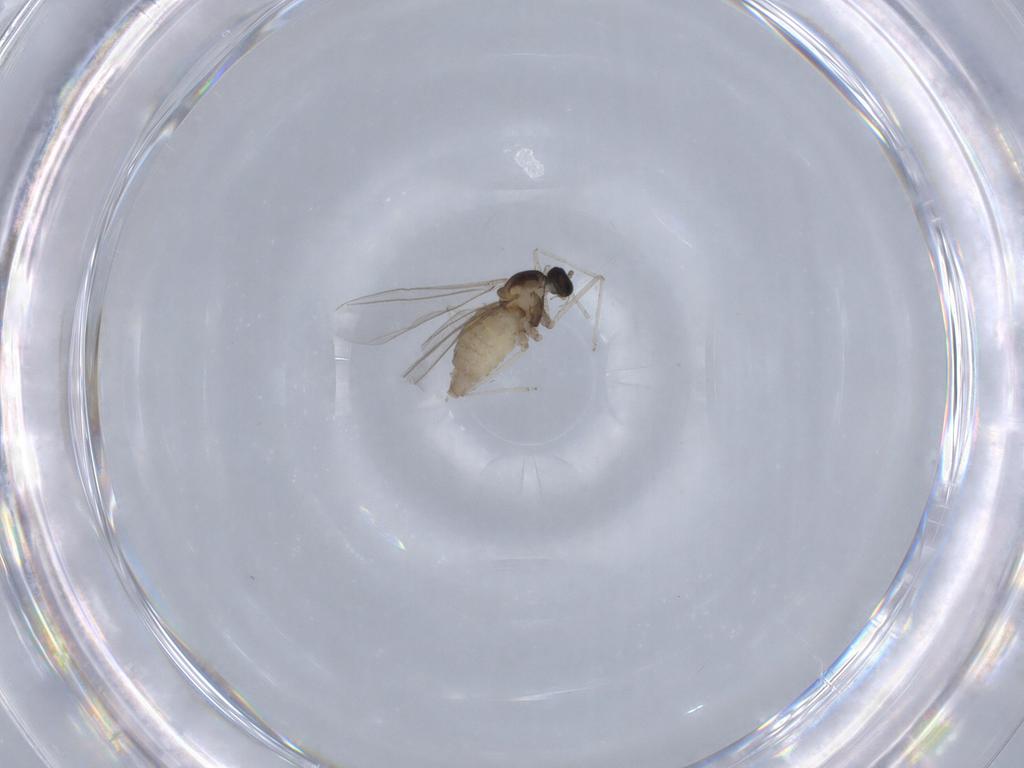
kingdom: Animalia
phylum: Arthropoda
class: Insecta
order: Diptera
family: Cecidomyiidae
